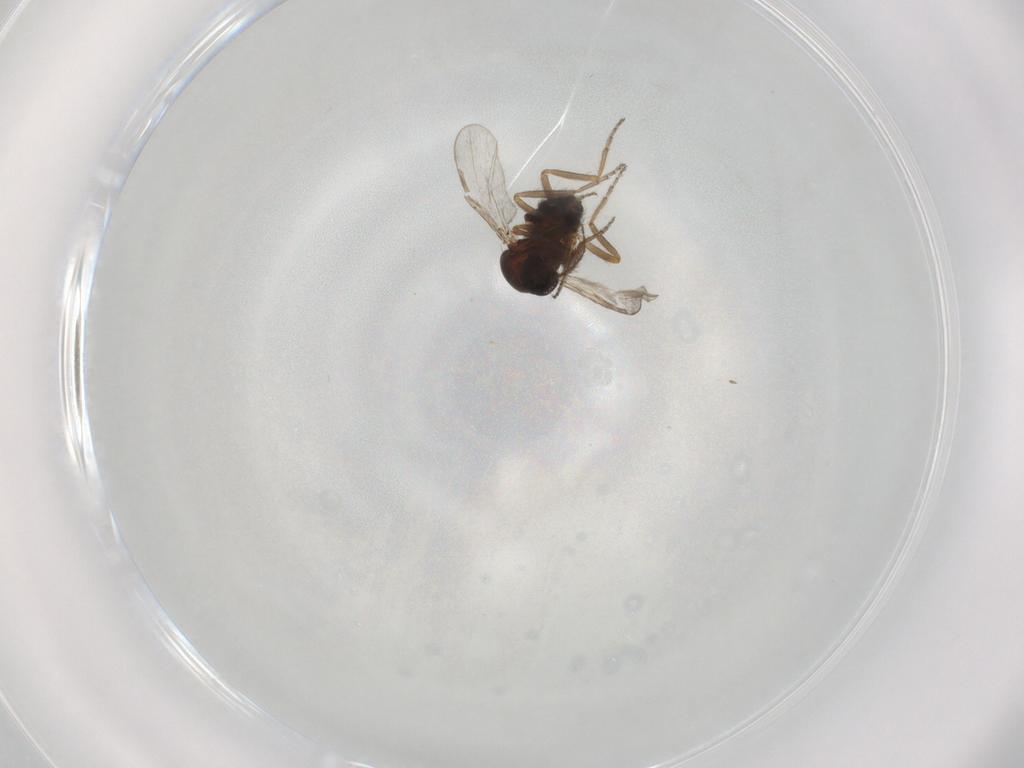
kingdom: Animalia
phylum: Arthropoda
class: Insecta
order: Diptera
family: Ceratopogonidae
